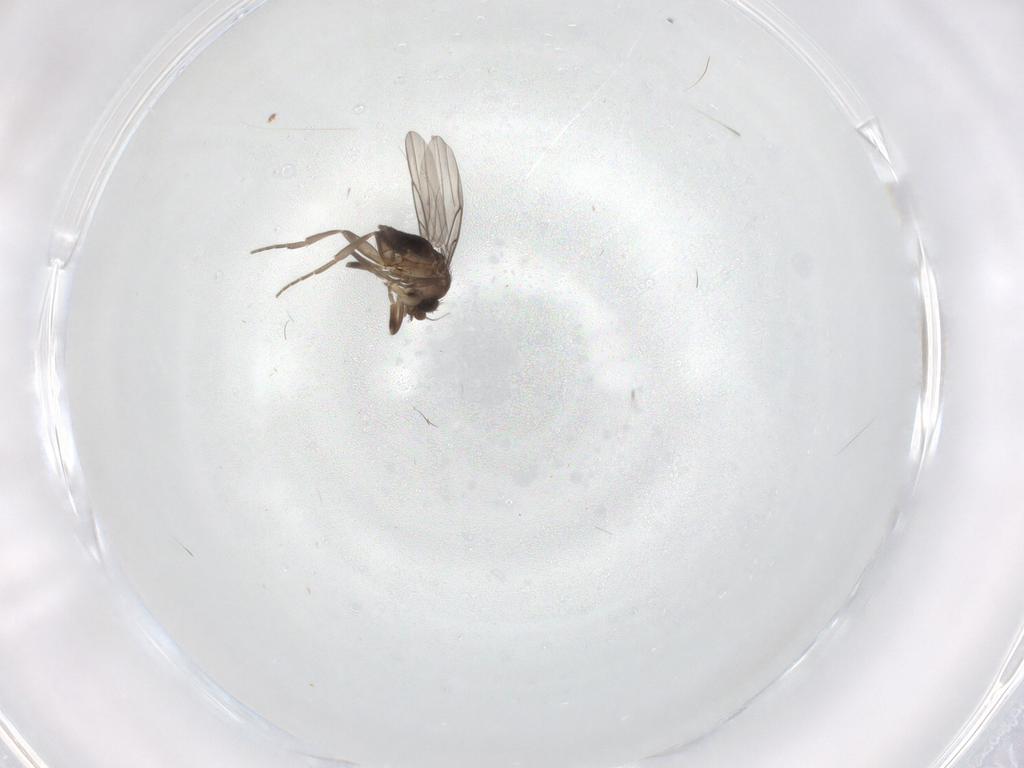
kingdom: Animalia
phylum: Arthropoda
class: Insecta
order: Diptera
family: Phoridae
